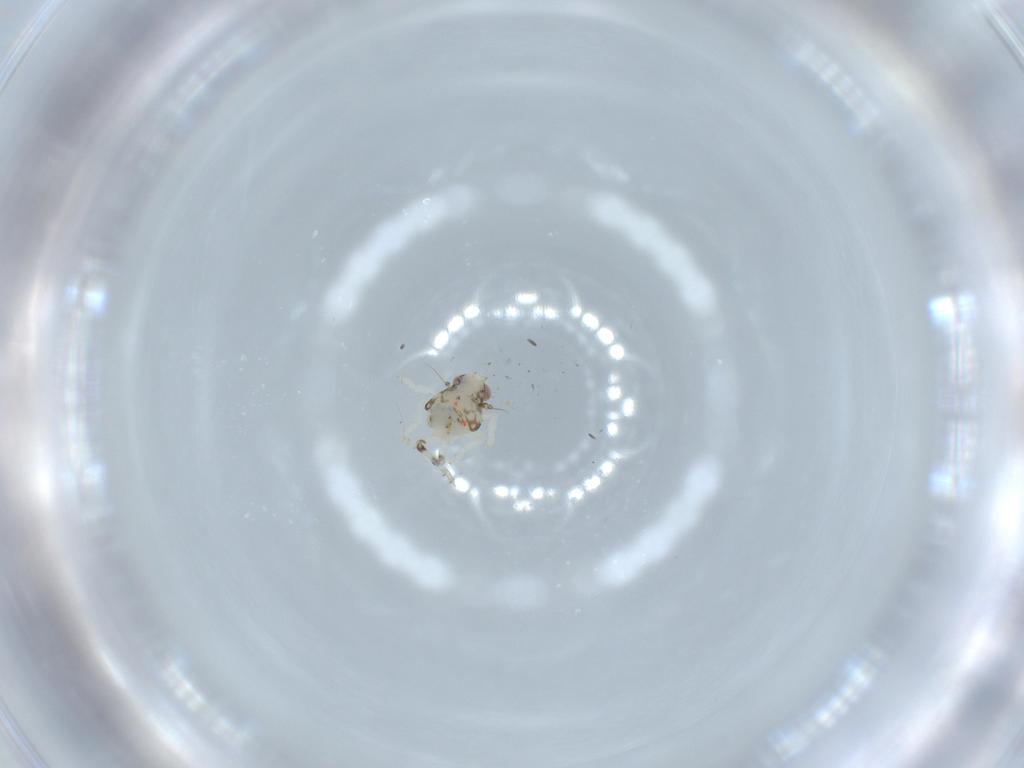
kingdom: Animalia
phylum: Arthropoda
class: Insecta
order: Hemiptera
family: Nogodinidae
